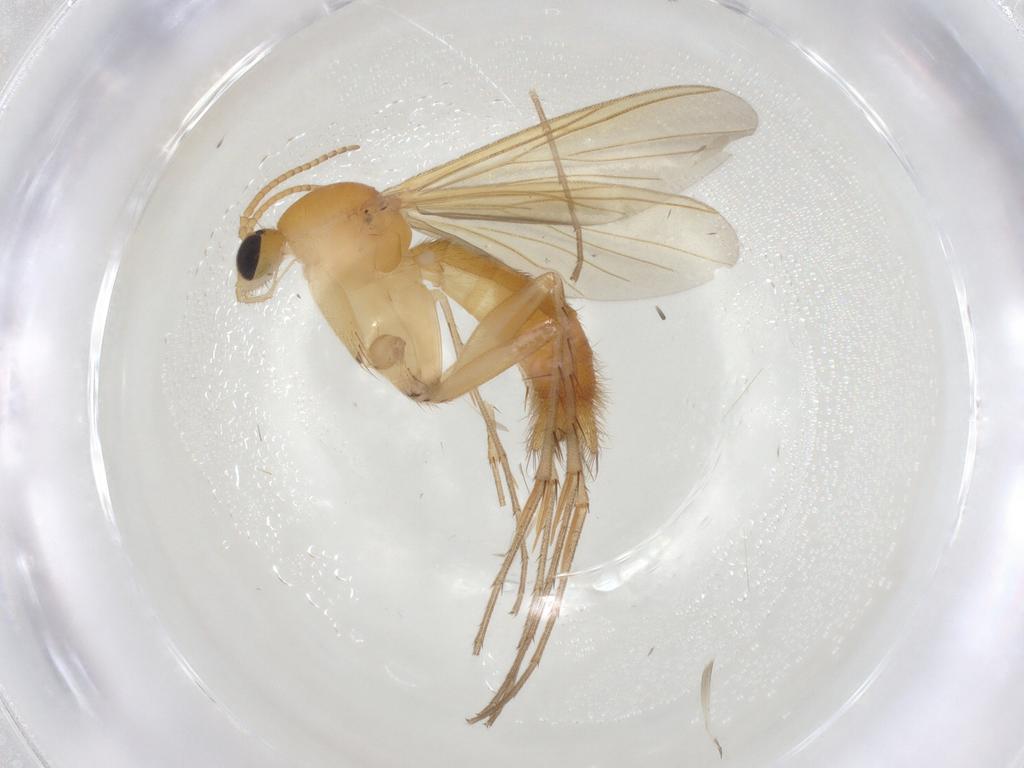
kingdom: Animalia
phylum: Arthropoda
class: Insecta
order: Diptera
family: Mycetophilidae
